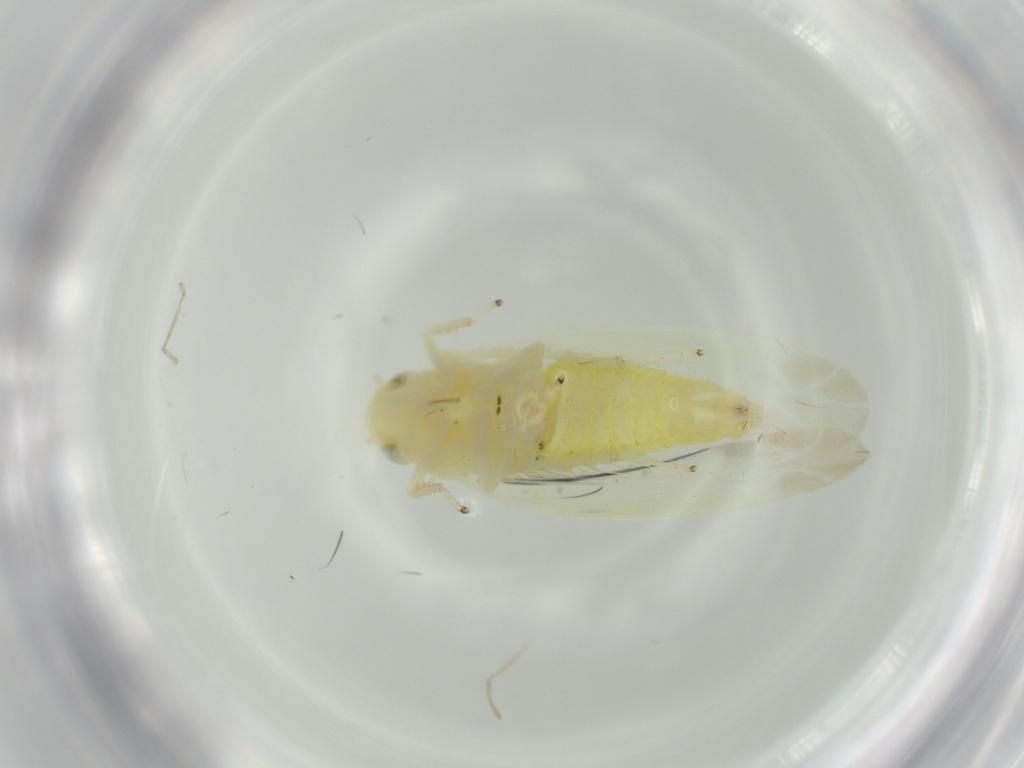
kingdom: Animalia
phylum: Arthropoda
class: Insecta
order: Hemiptera
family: Cicadellidae
